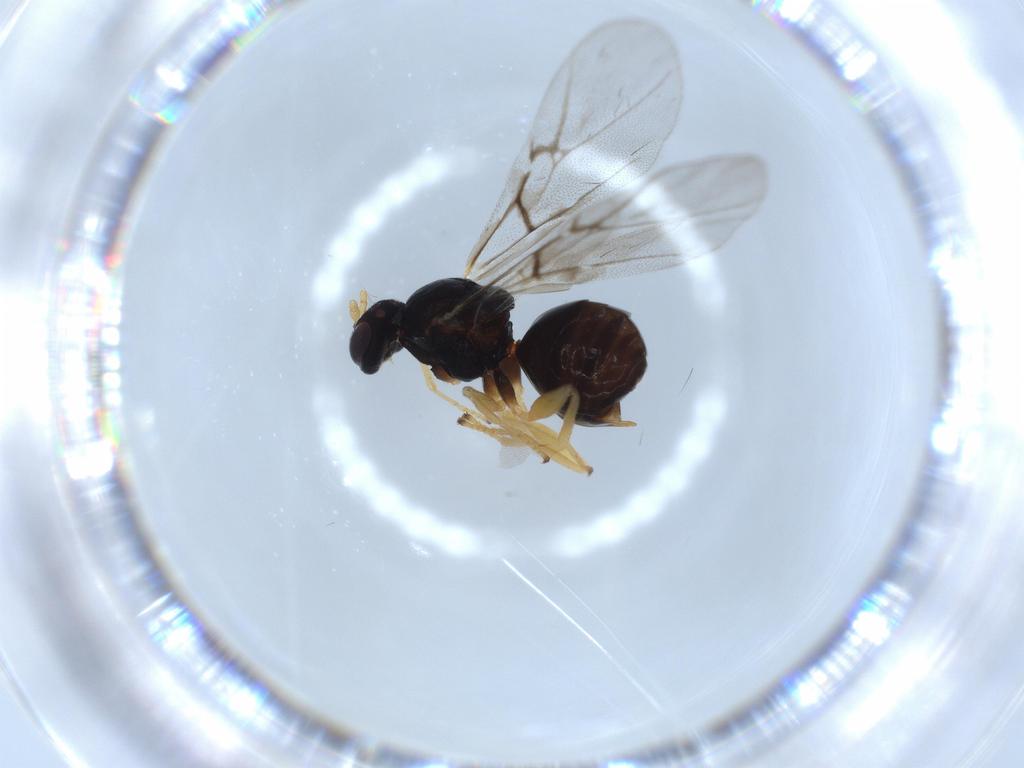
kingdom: Animalia
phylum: Arthropoda
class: Insecta
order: Hymenoptera
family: Cynipidae
